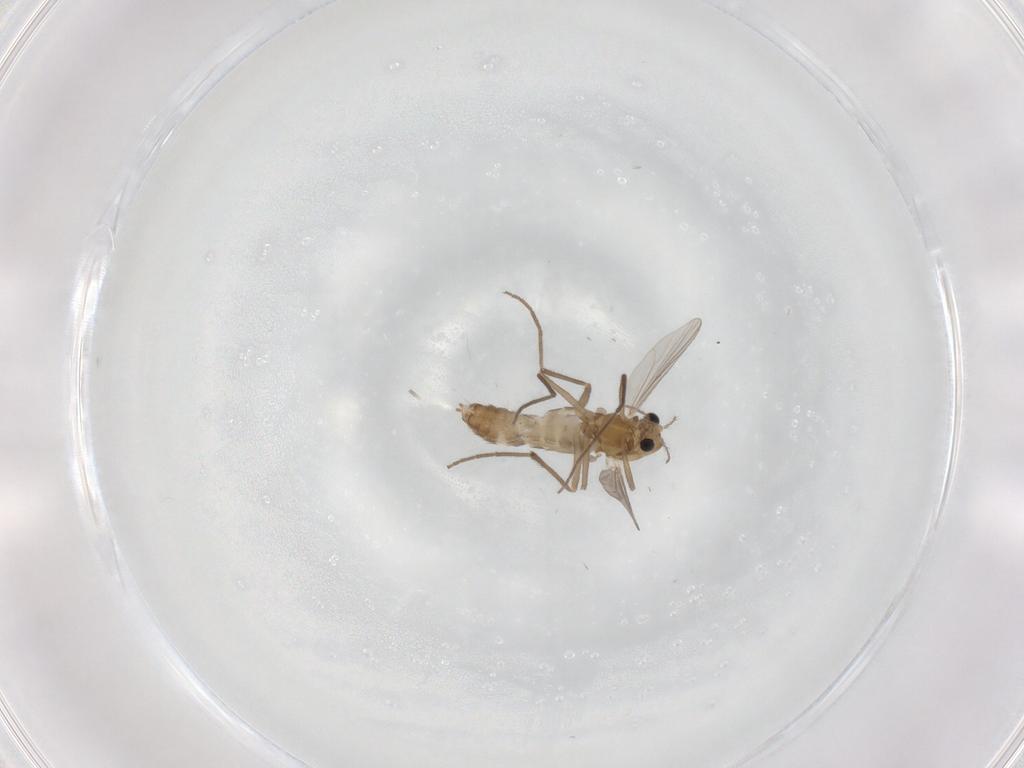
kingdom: Animalia
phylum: Arthropoda
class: Insecta
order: Diptera
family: Chironomidae
